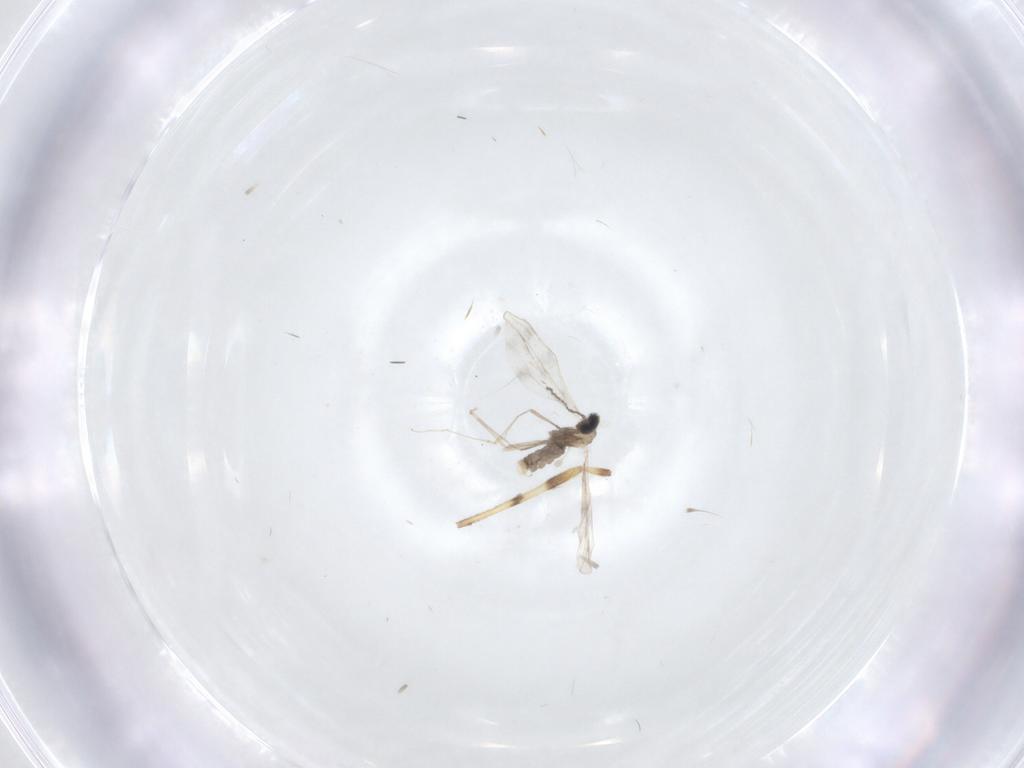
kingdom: Animalia
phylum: Arthropoda
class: Insecta
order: Diptera
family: Chironomidae
